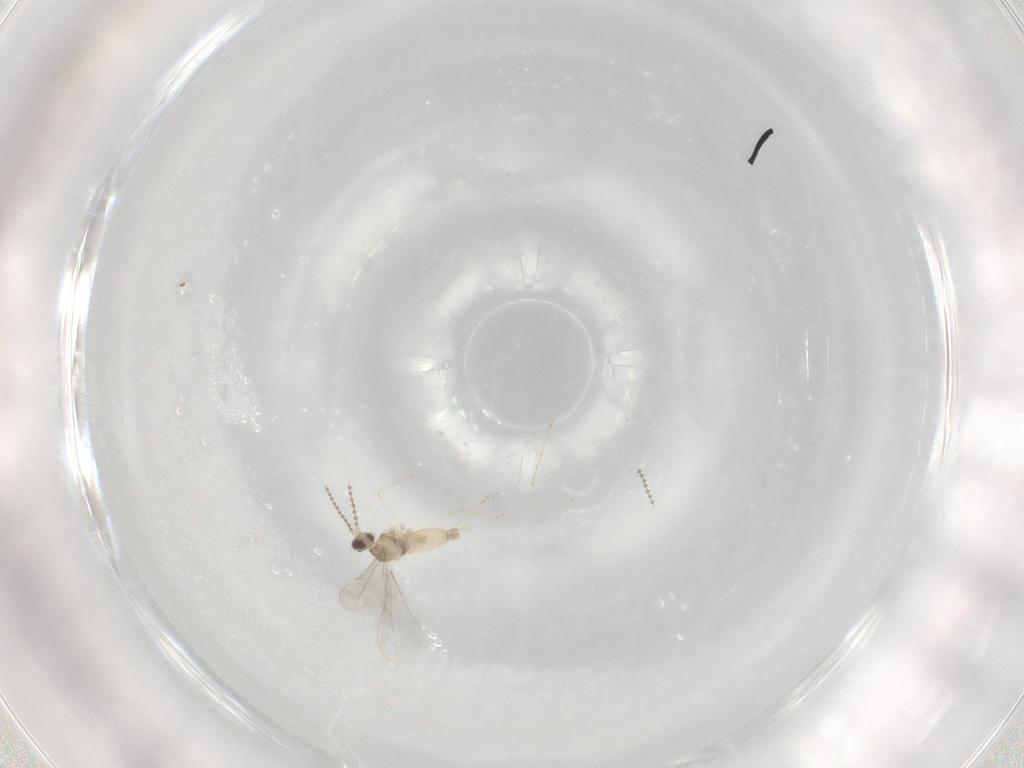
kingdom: Animalia
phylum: Arthropoda
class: Insecta
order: Diptera
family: Cecidomyiidae
